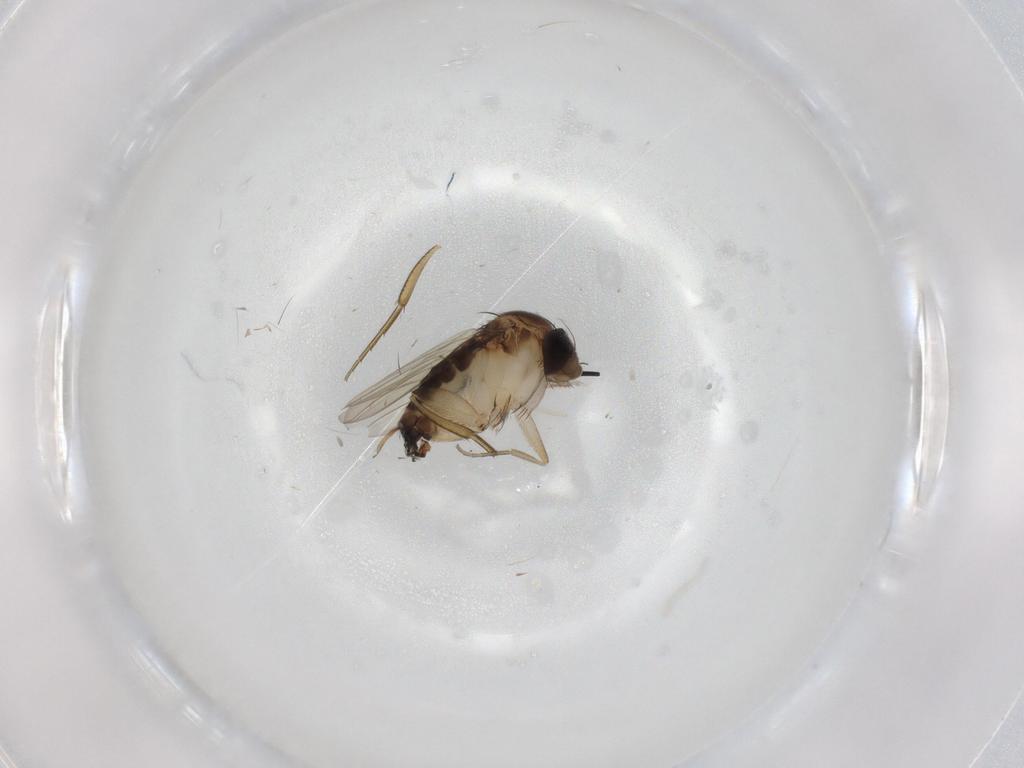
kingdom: Animalia
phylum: Arthropoda
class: Insecta
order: Diptera
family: Phoridae
